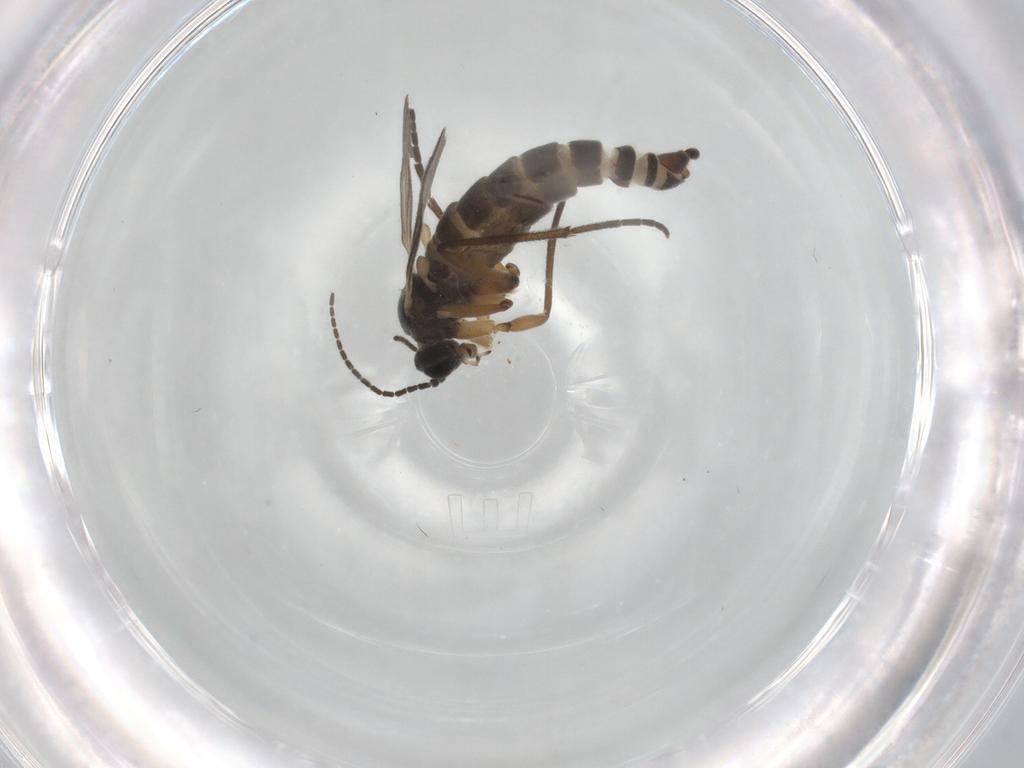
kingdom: Animalia
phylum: Arthropoda
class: Insecta
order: Diptera
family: Sciaridae
